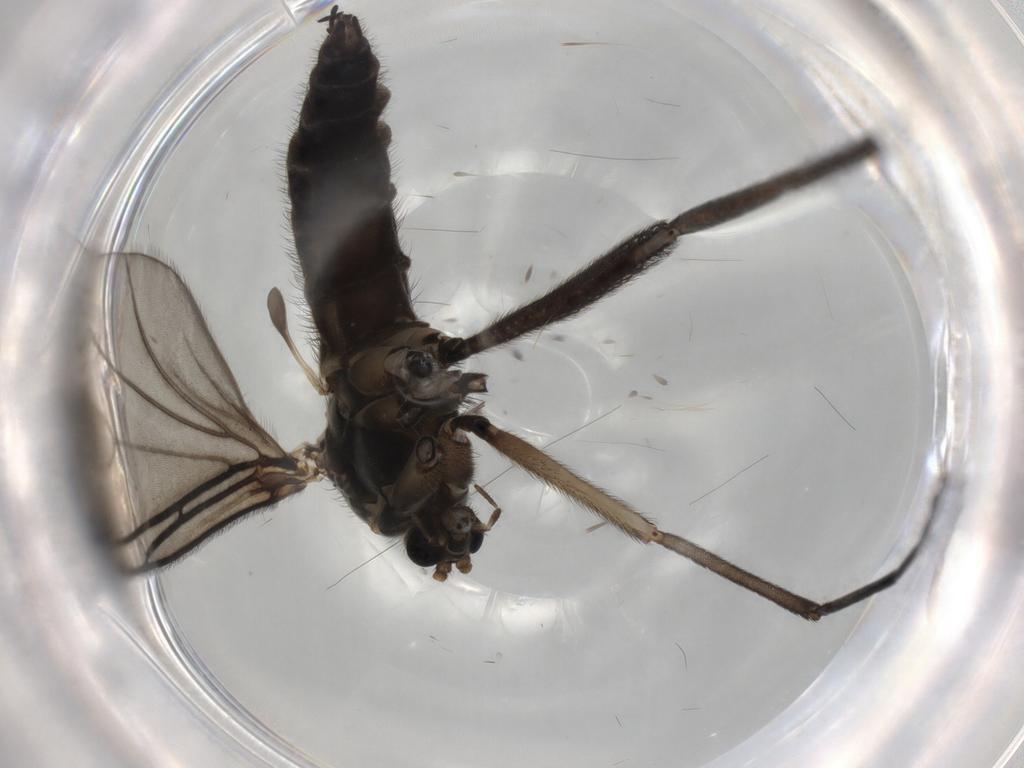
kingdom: Animalia
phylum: Arthropoda
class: Insecta
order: Diptera
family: Sciaridae
